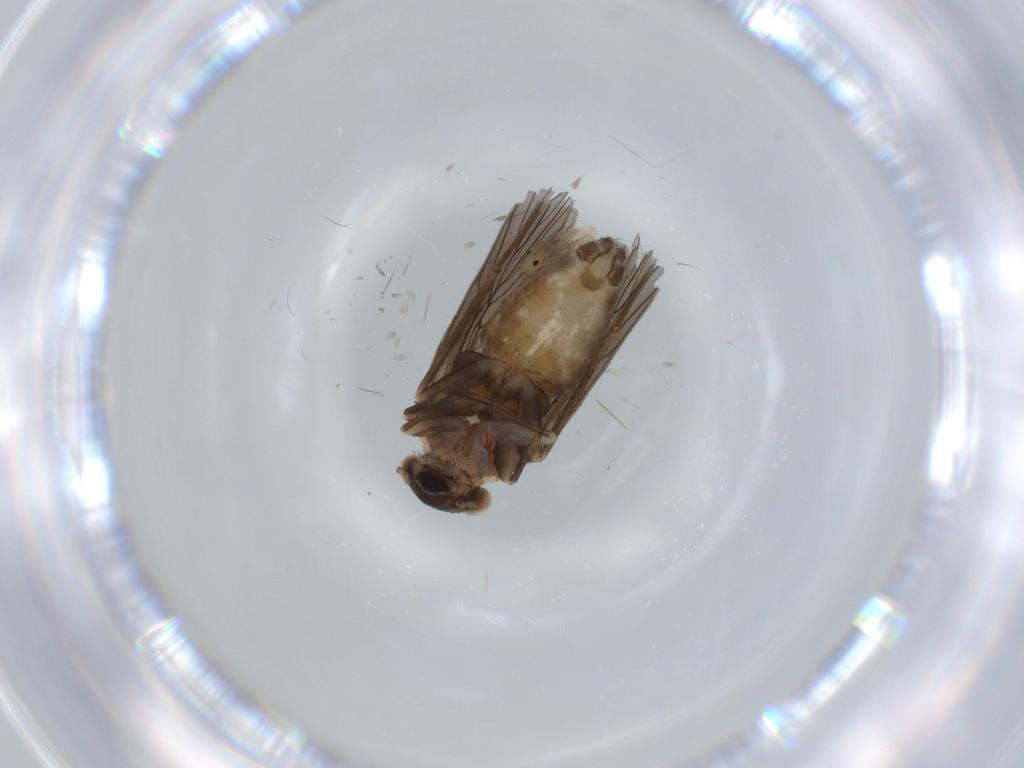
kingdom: Animalia
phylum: Arthropoda
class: Insecta
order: Psocodea
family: Lepidopsocidae
